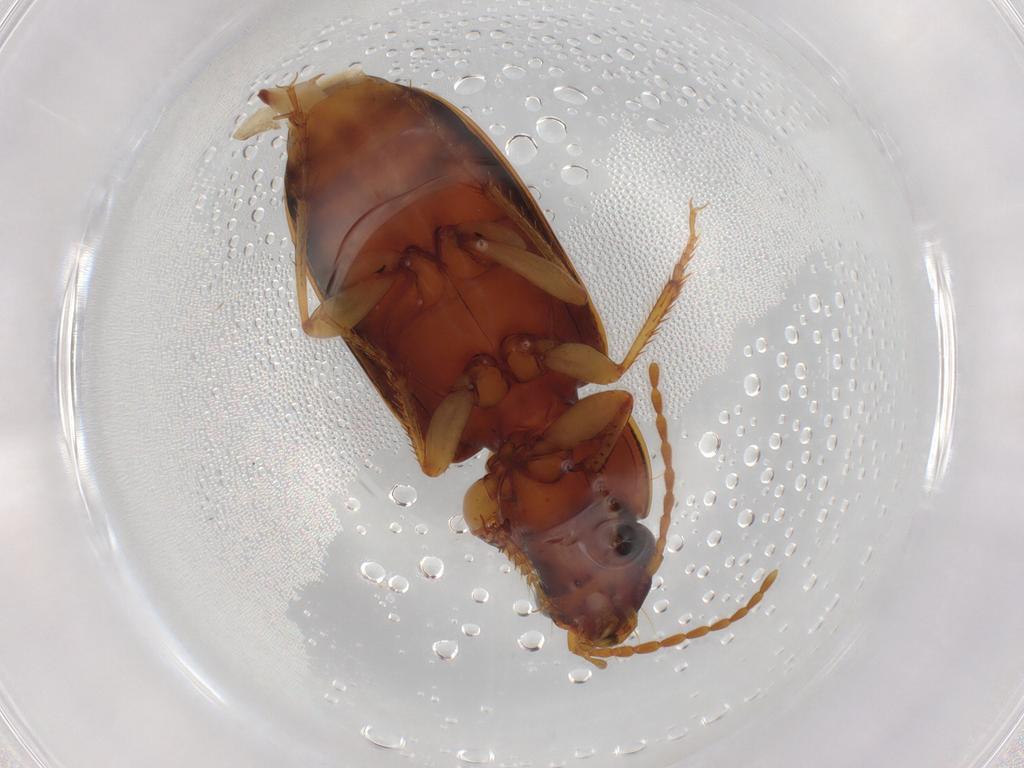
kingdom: Animalia
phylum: Arthropoda
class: Insecta
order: Coleoptera
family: Carabidae
